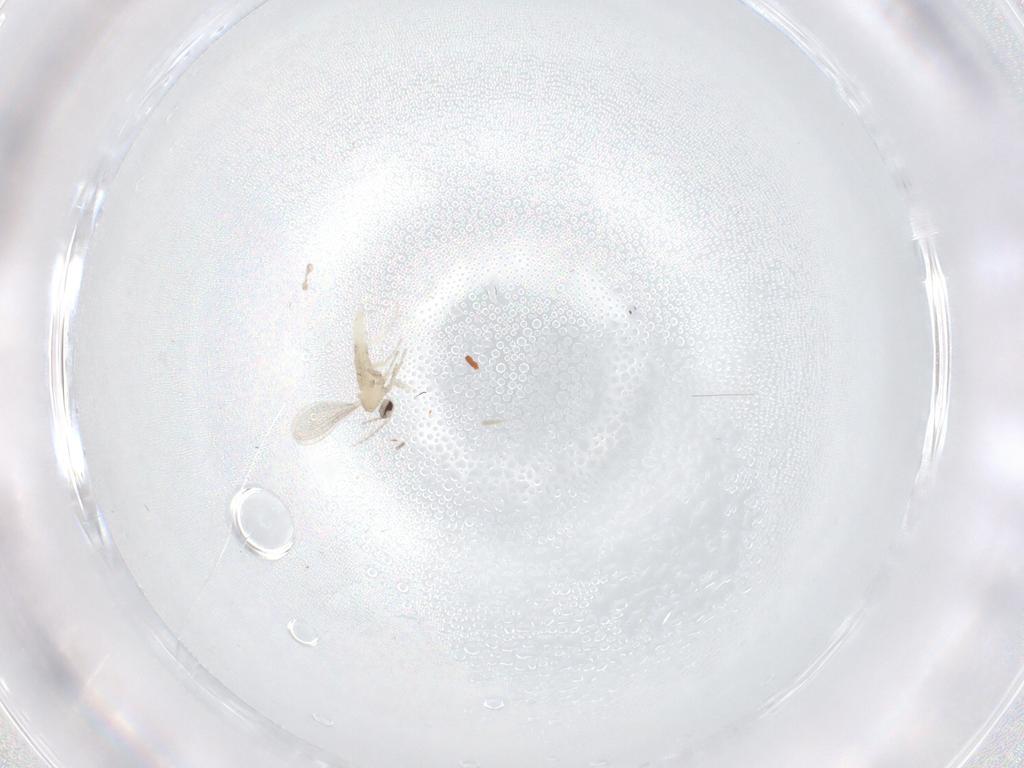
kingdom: Animalia
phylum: Arthropoda
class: Insecta
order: Diptera
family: Cecidomyiidae
